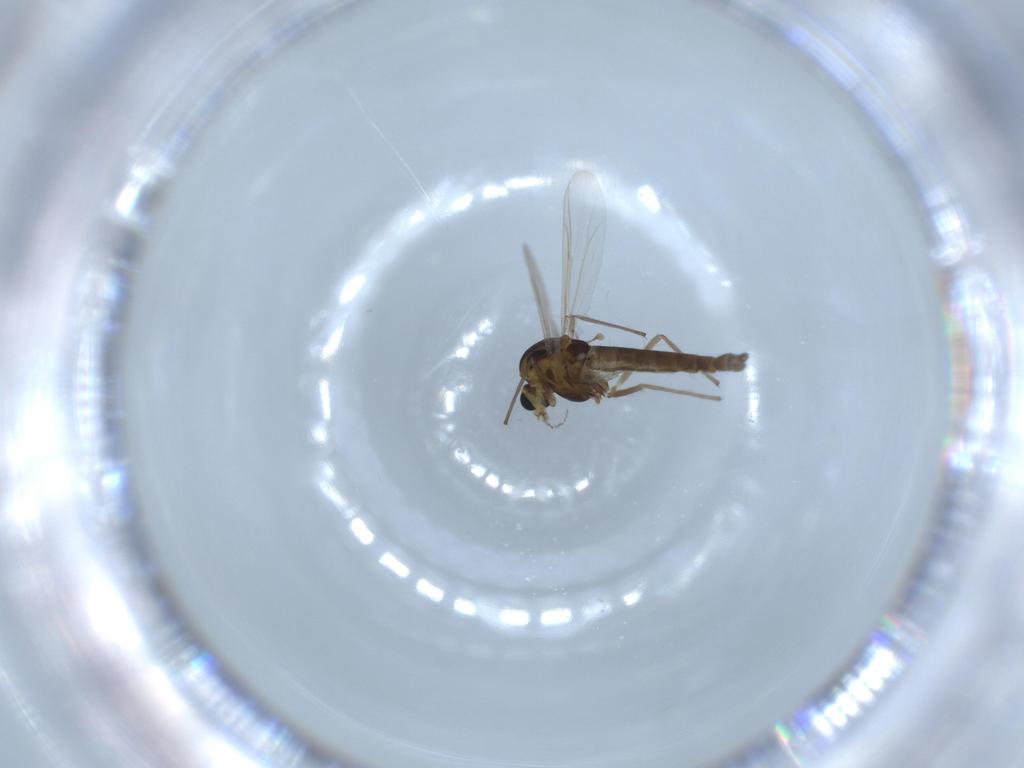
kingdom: Animalia
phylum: Arthropoda
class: Insecta
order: Diptera
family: Chironomidae
